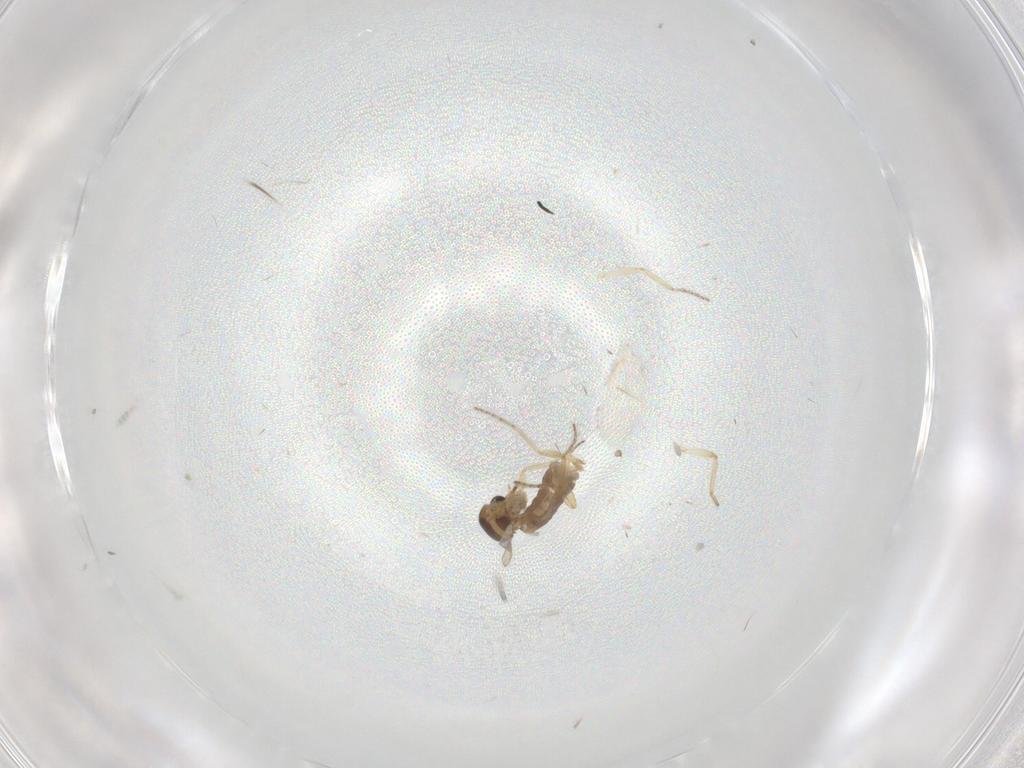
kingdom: Animalia
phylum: Arthropoda
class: Insecta
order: Diptera
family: Ceratopogonidae
